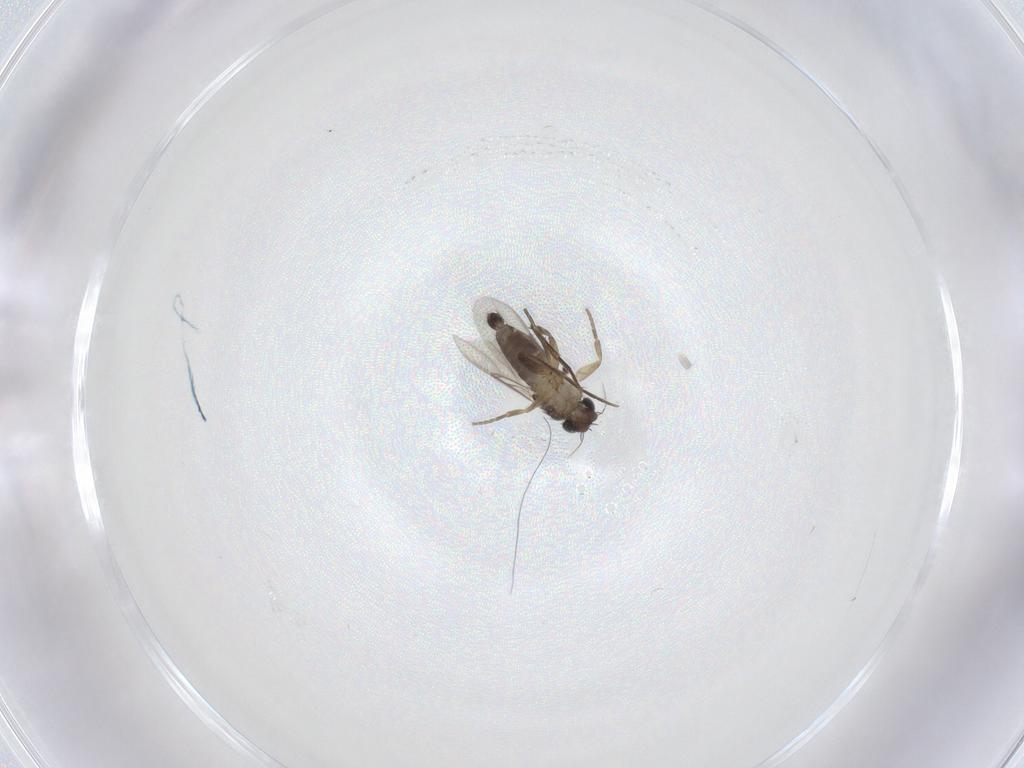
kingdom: Animalia
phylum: Arthropoda
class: Insecta
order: Diptera
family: Phoridae
